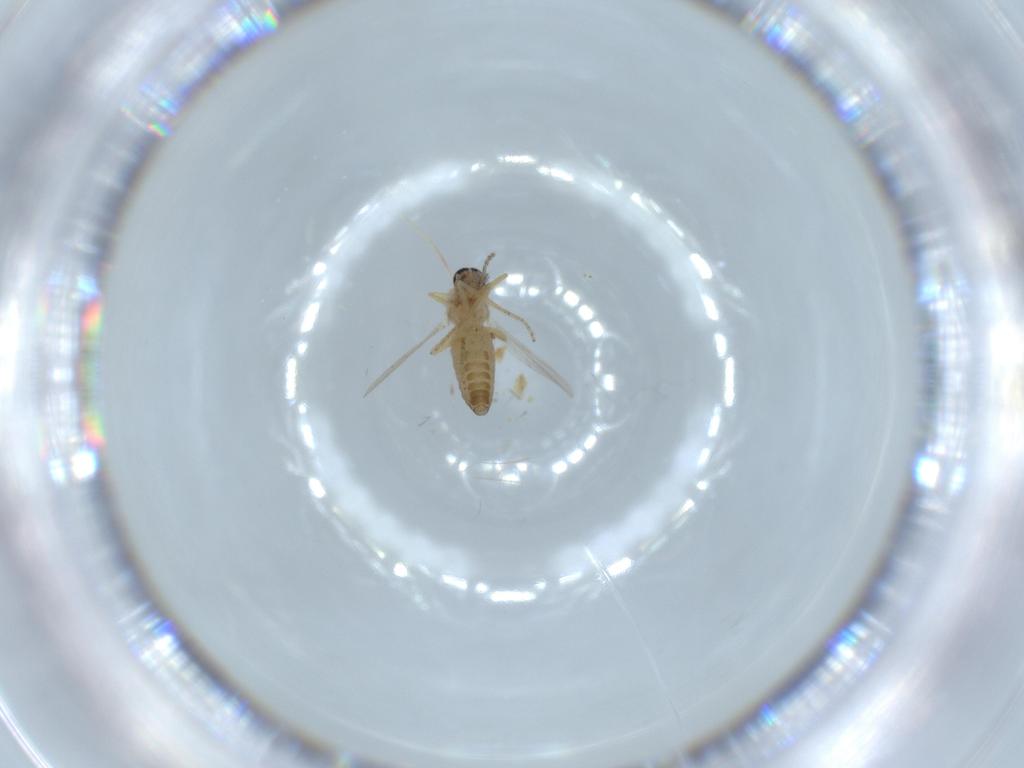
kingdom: Animalia
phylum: Arthropoda
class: Insecta
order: Diptera
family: Ceratopogonidae
